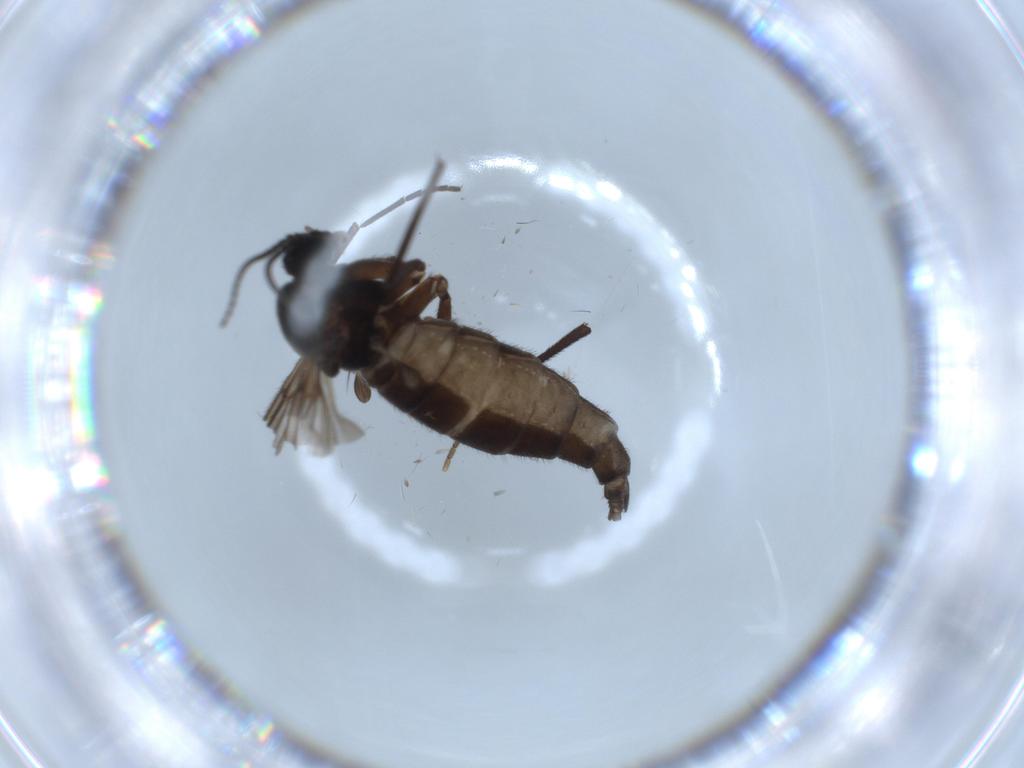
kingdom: Animalia
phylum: Arthropoda
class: Insecta
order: Diptera
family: Sciaridae
